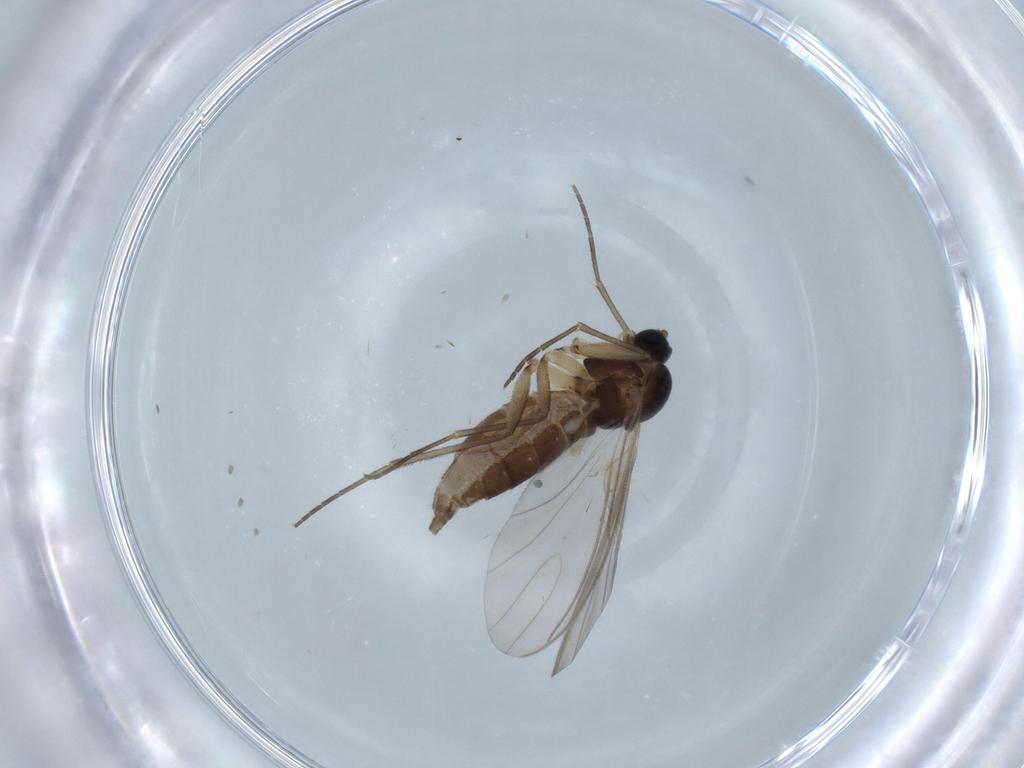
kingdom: Animalia
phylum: Arthropoda
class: Insecta
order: Diptera
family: Sciaridae
